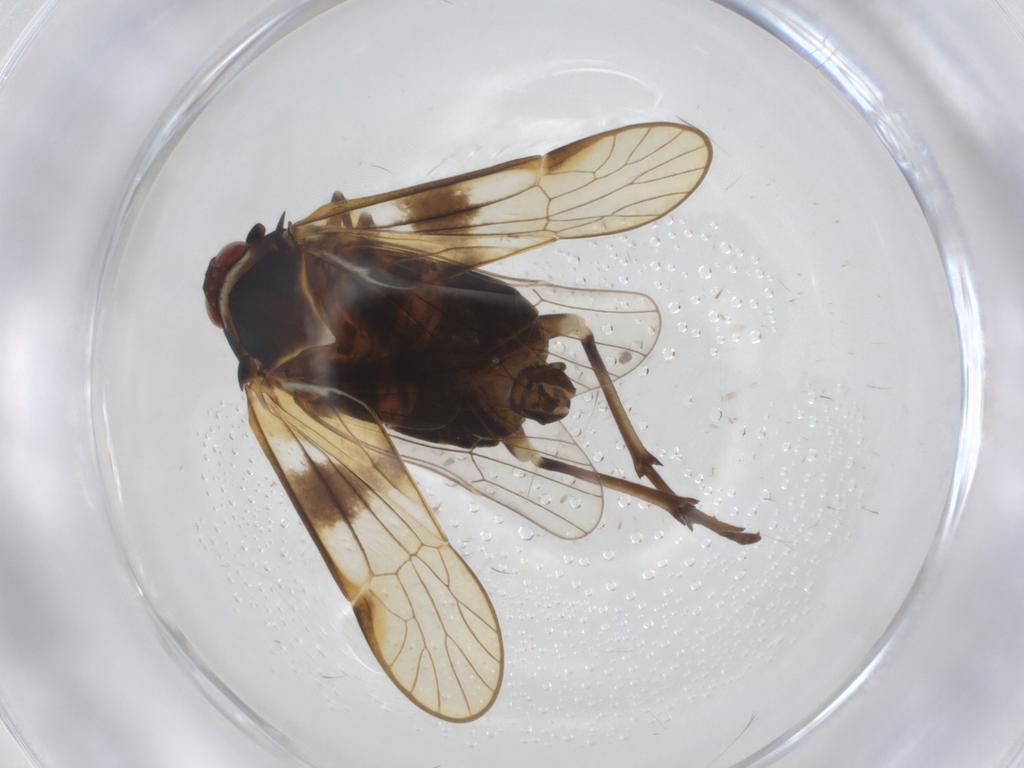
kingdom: Animalia
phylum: Arthropoda
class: Insecta
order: Hemiptera
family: Kinnaridae
